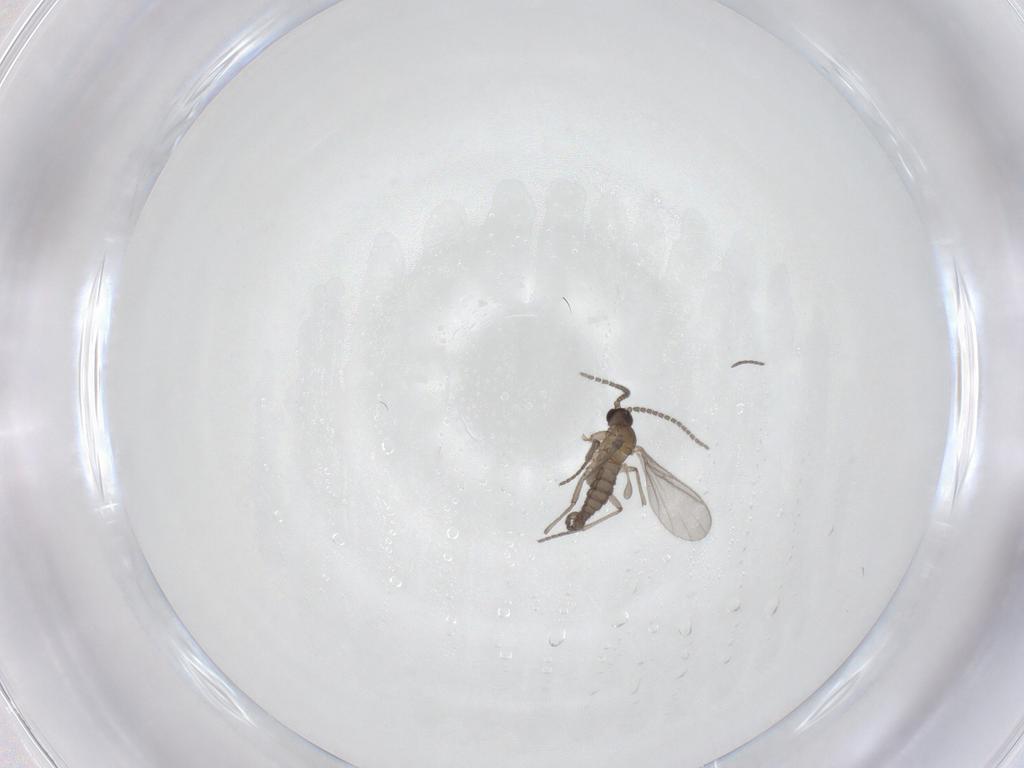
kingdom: Animalia
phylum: Arthropoda
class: Insecta
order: Diptera
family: Sciaridae
